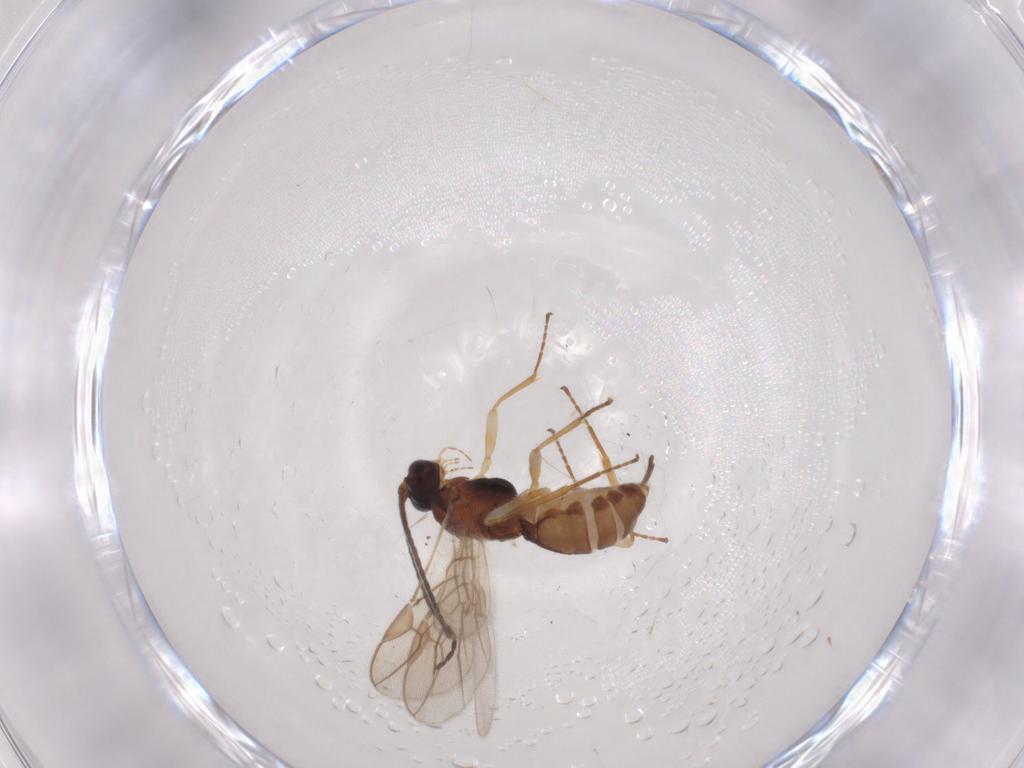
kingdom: Animalia
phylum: Arthropoda
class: Insecta
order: Hymenoptera
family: Braconidae
